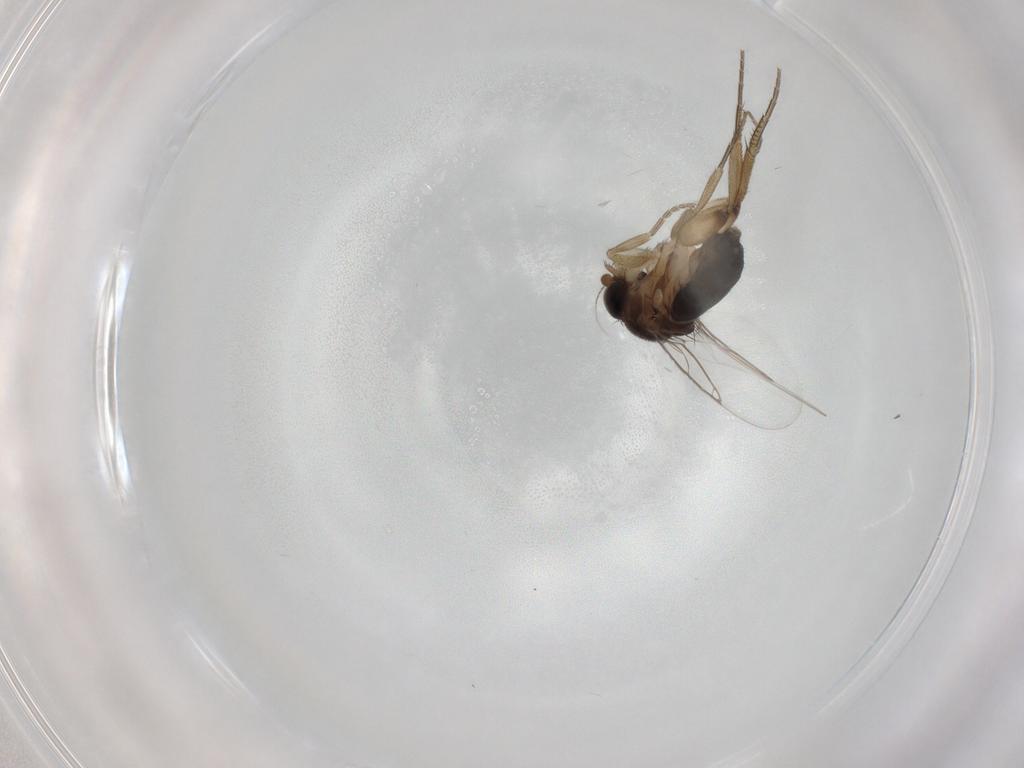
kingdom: Animalia
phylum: Arthropoda
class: Insecta
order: Diptera
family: Phoridae
